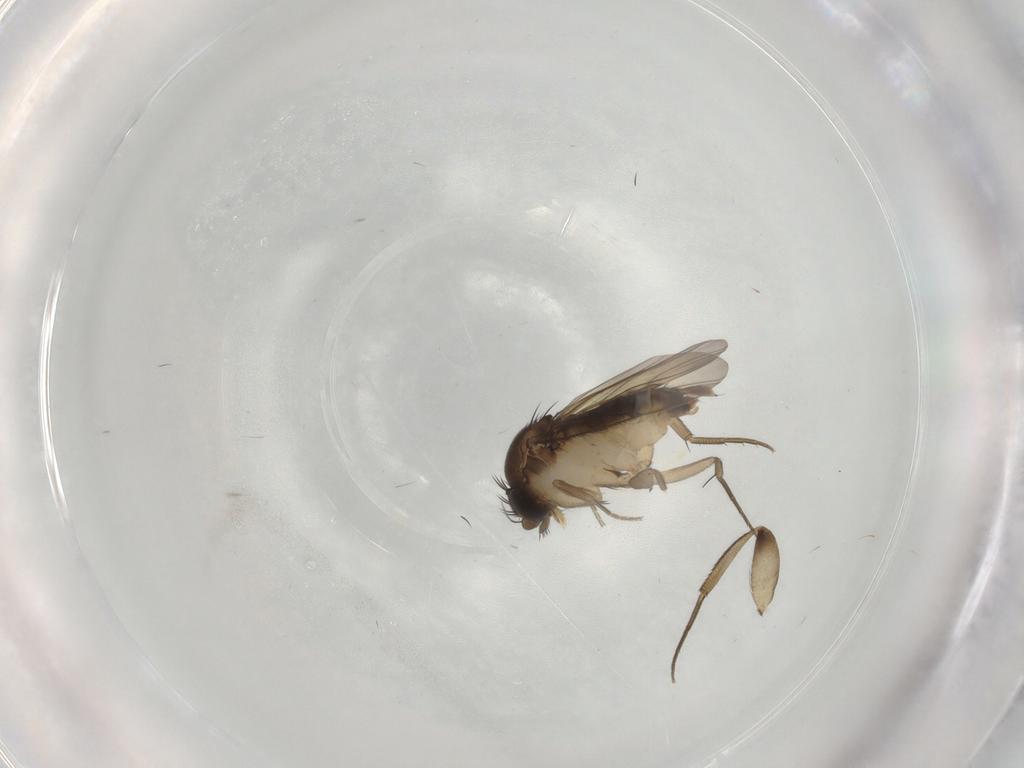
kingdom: Animalia
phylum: Arthropoda
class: Insecta
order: Diptera
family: Phoridae
